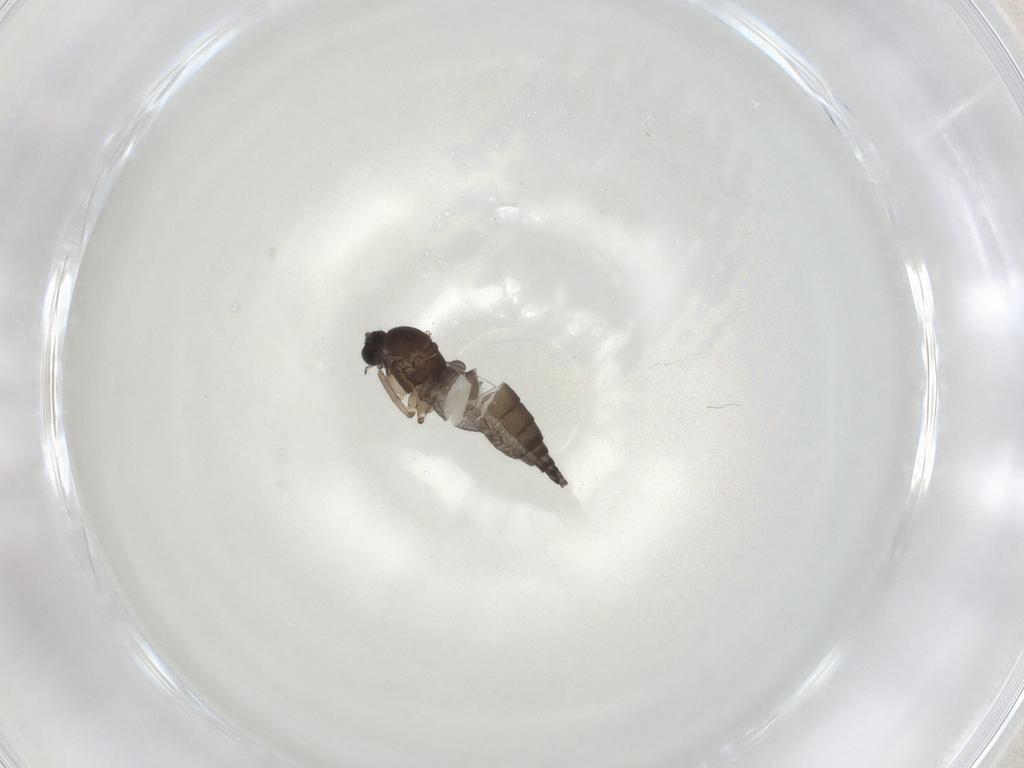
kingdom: Animalia
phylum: Arthropoda
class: Insecta
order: Diptera
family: Sciaridae
